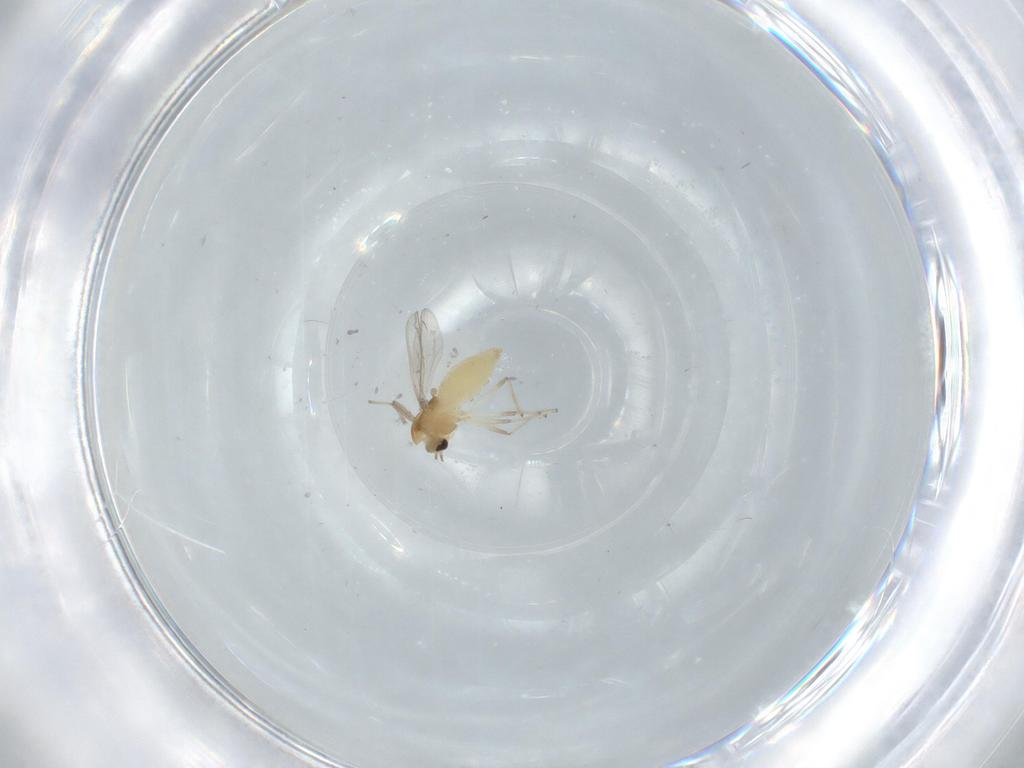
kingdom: Animalia
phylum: Arthropoda
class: Insecta
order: Diptera
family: Chironomidae
